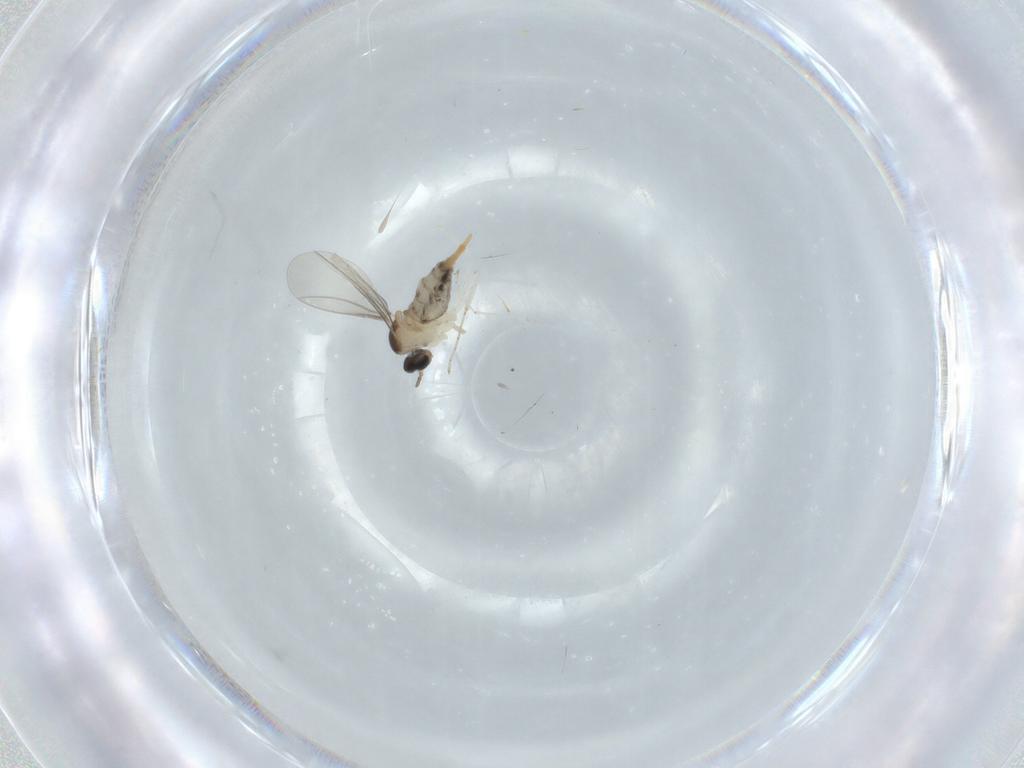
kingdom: Animalia
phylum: Arthropoda
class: Insecta
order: Diptera
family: Cecidomyiidae
